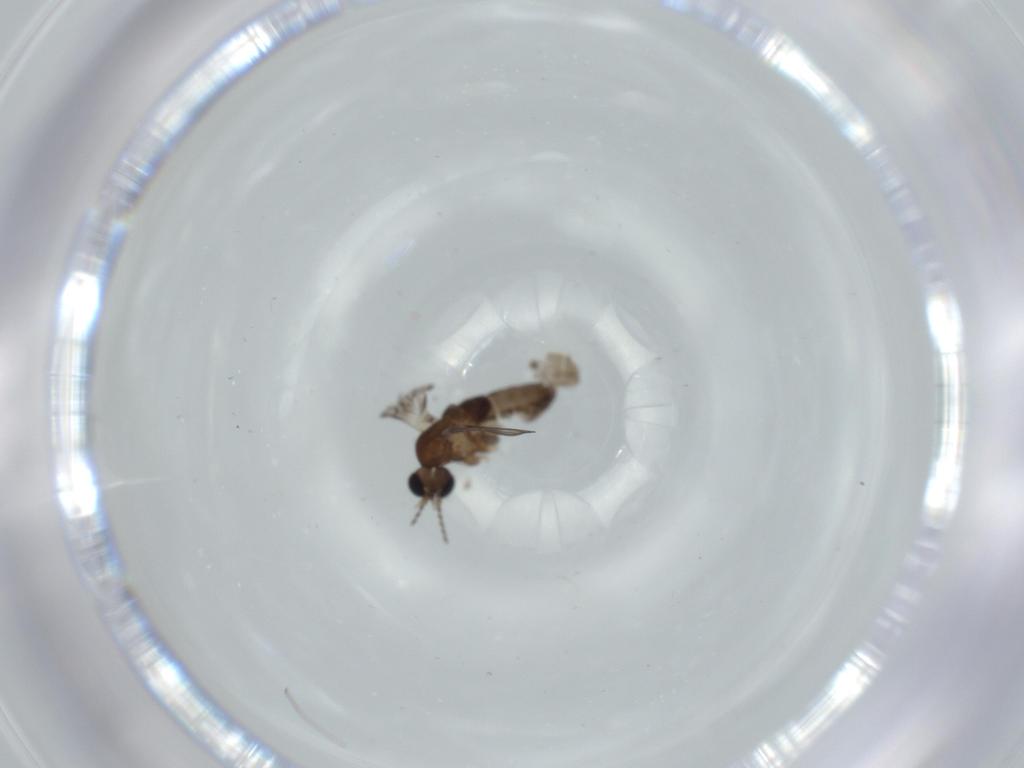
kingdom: Animalia
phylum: Arthropoda
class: Insecta
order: Diptera
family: Psychodidae
